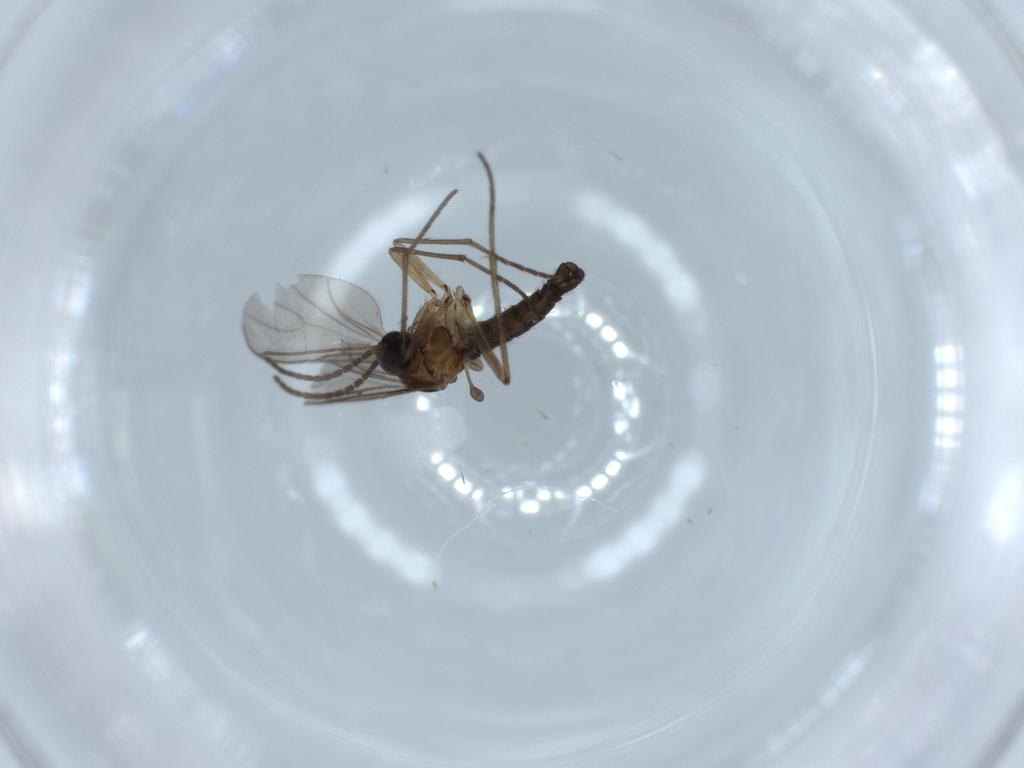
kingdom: Animalia
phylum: Arthropoda
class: Insecta
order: Diptera
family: Sciaridae
